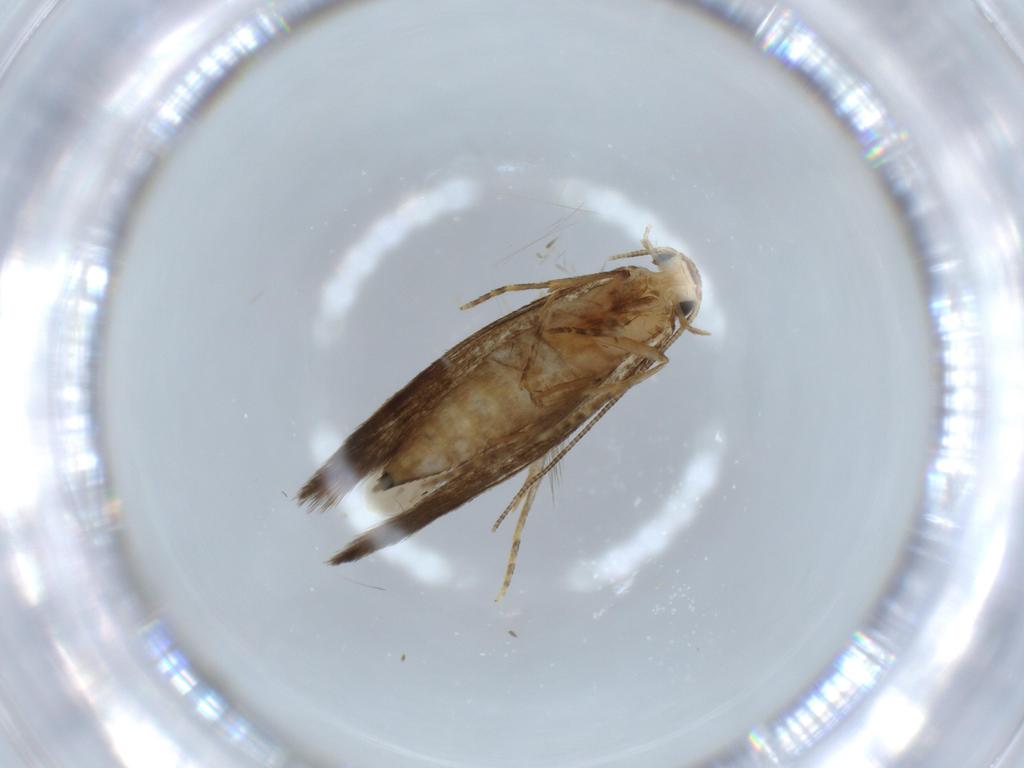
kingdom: Animalia
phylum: Arthropoda
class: Insecta
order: Lepidoptera
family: Tineidae
